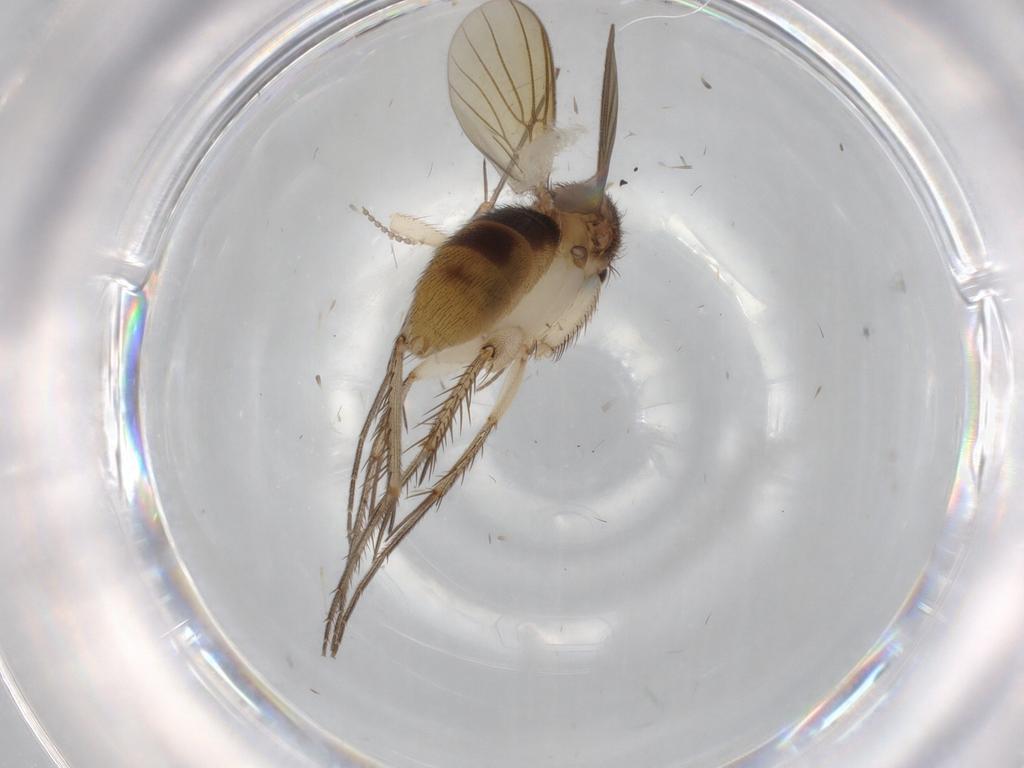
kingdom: Animalia
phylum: Arthropoda
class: Insecta
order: Diptera
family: Mycetophilidae
